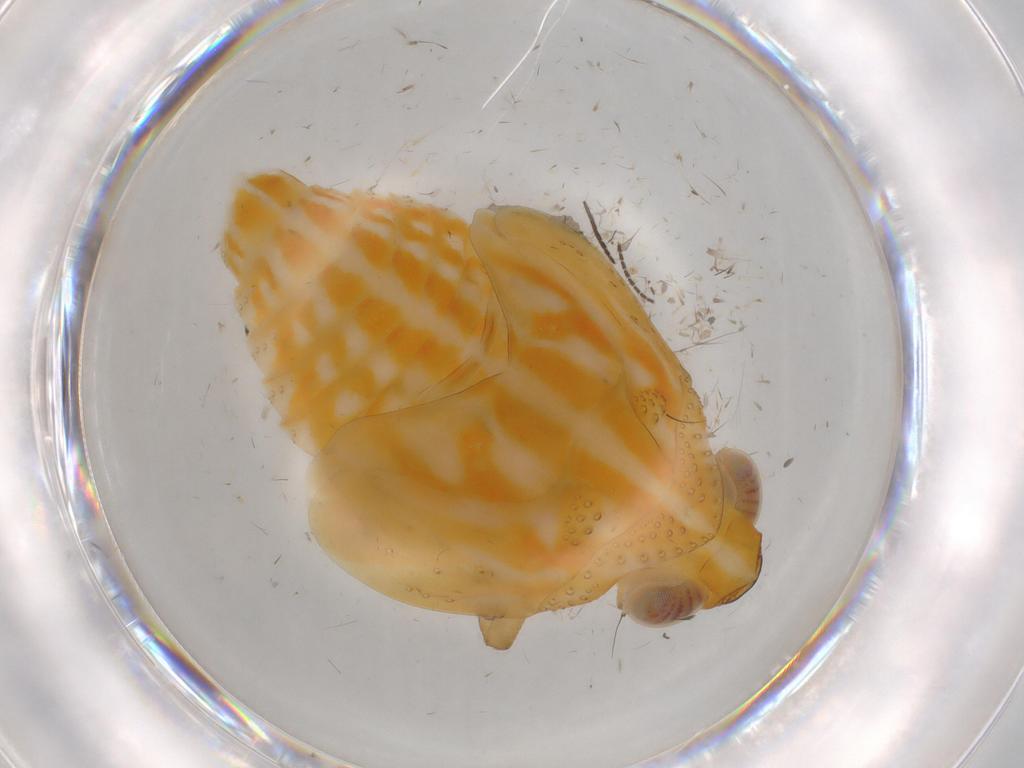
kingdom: Animalia
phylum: Arthropoda
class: Insecta
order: Hemiptera
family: Issidae
